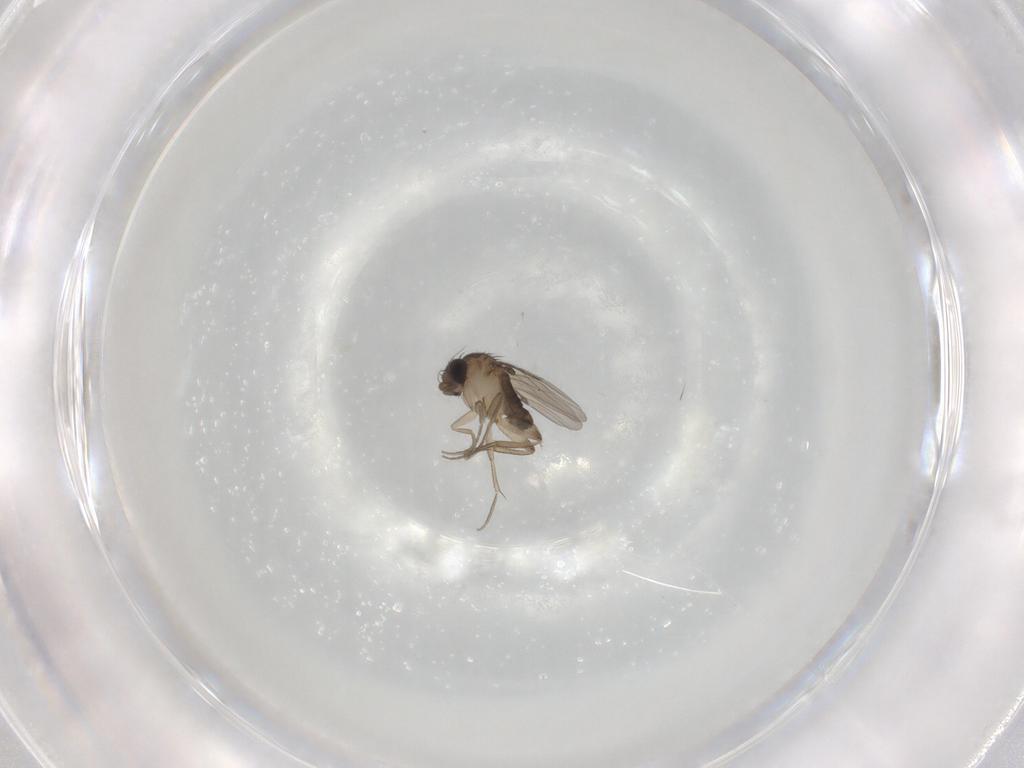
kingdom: Animalia
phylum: Arthropoda
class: Insecta
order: Diptera
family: Phoridae
